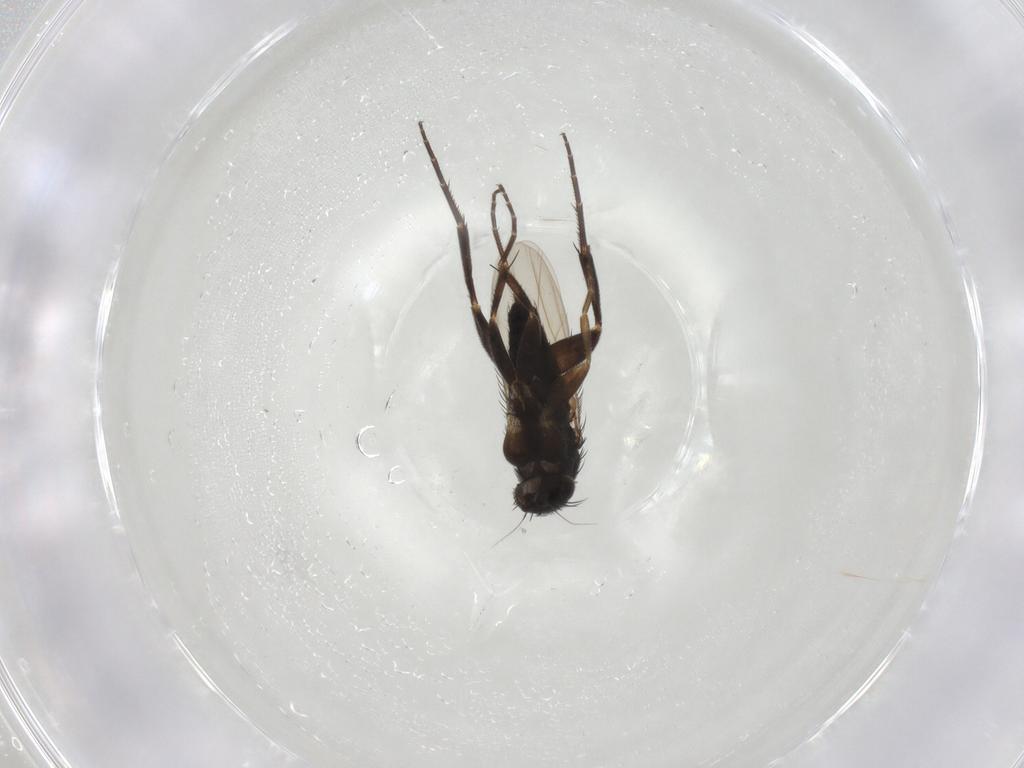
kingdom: Animalia
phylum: Arthropoda
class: Insecta
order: Diptera
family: Phoridae
